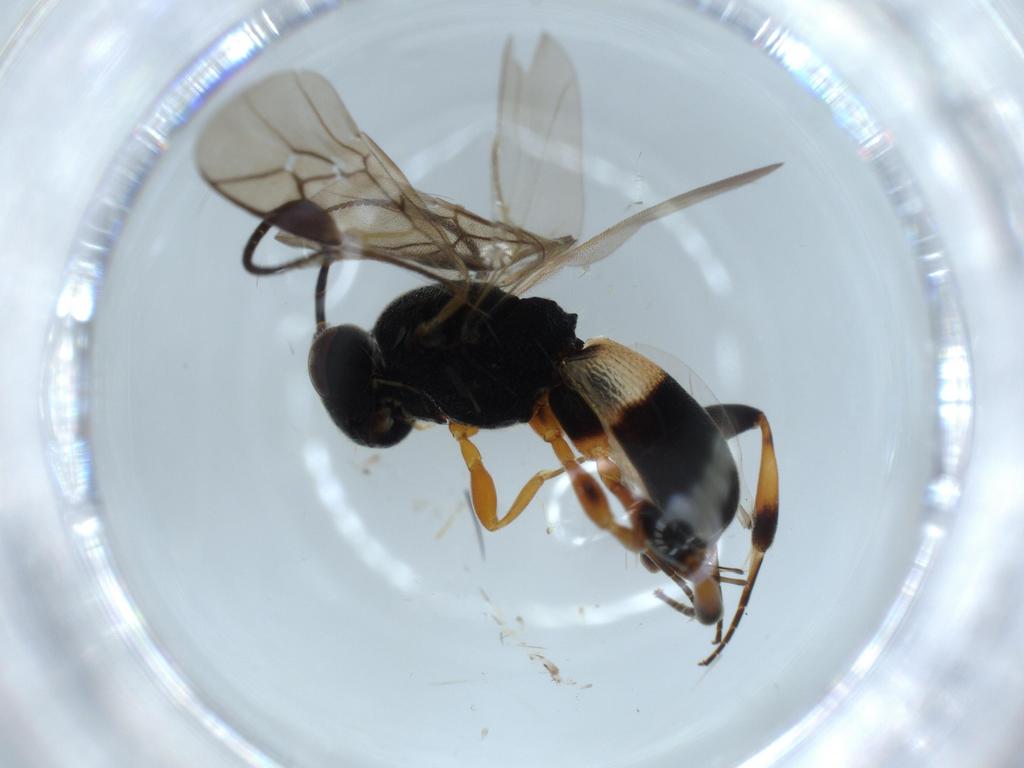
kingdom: Animalia
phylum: Arthropoda
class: Insecta
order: Hymenoptera
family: Braconidae
